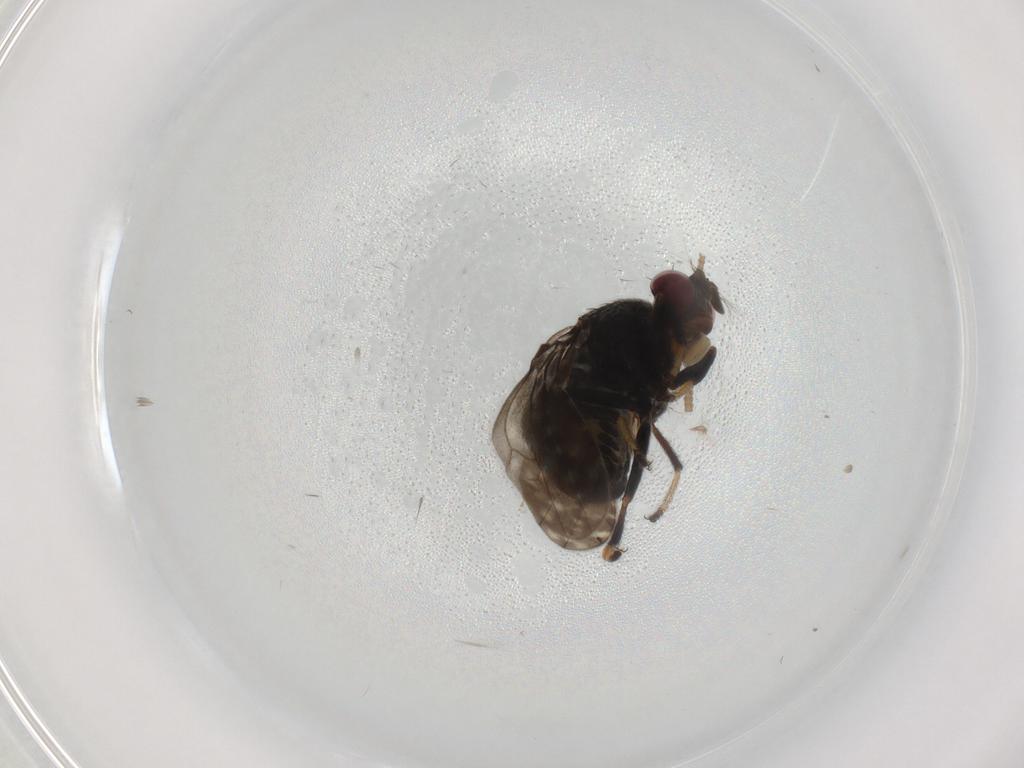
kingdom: Animalia
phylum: Arthropoda
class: Insecta
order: Diptera
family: Ephydridae
